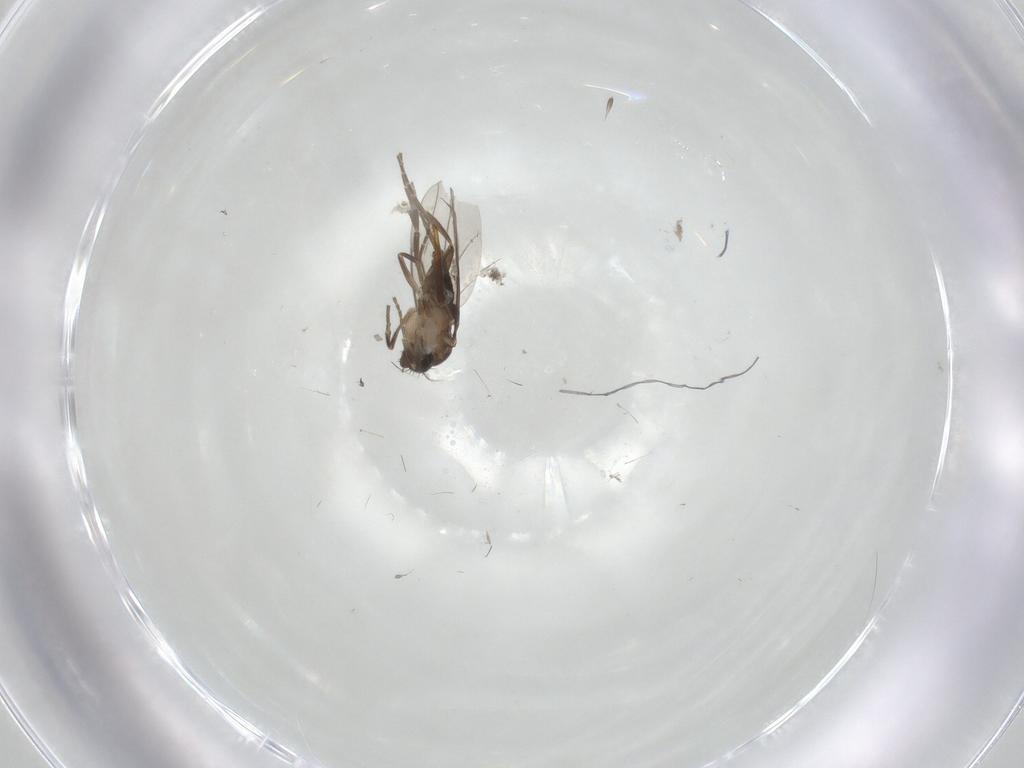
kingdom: Animalia
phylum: Arthropoda
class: Insecta
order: Diptera
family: Phoridae
